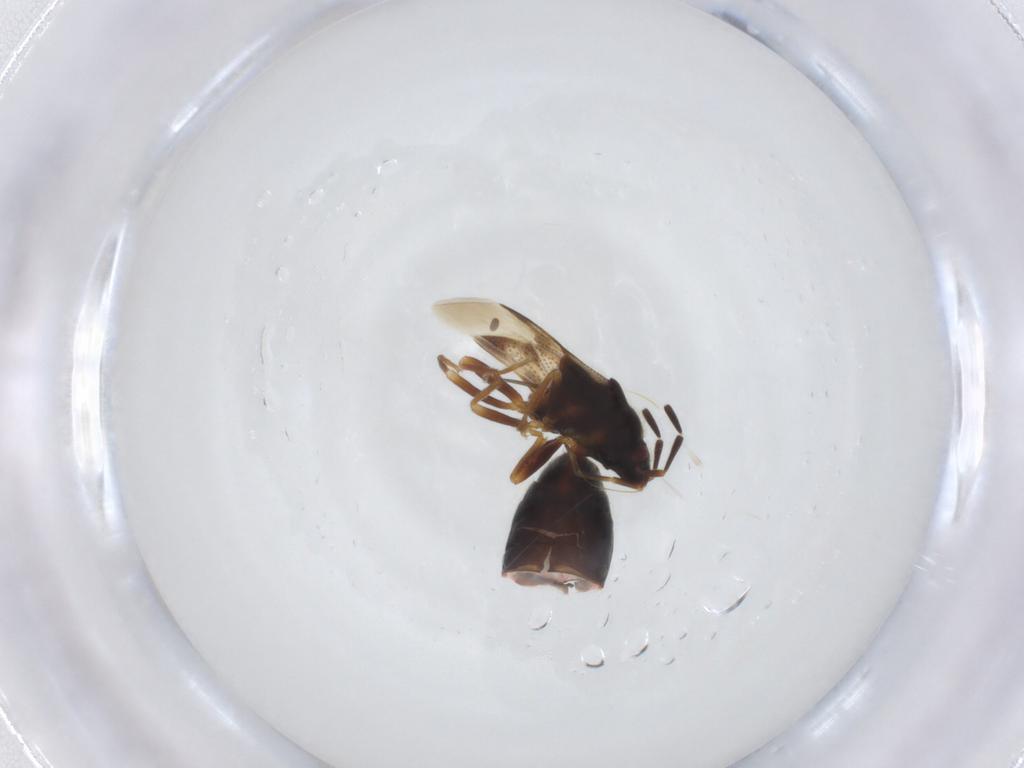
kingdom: Animalia
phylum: Arthropoda
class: Insecta
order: Hemiptera
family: Rhyparochromidae
